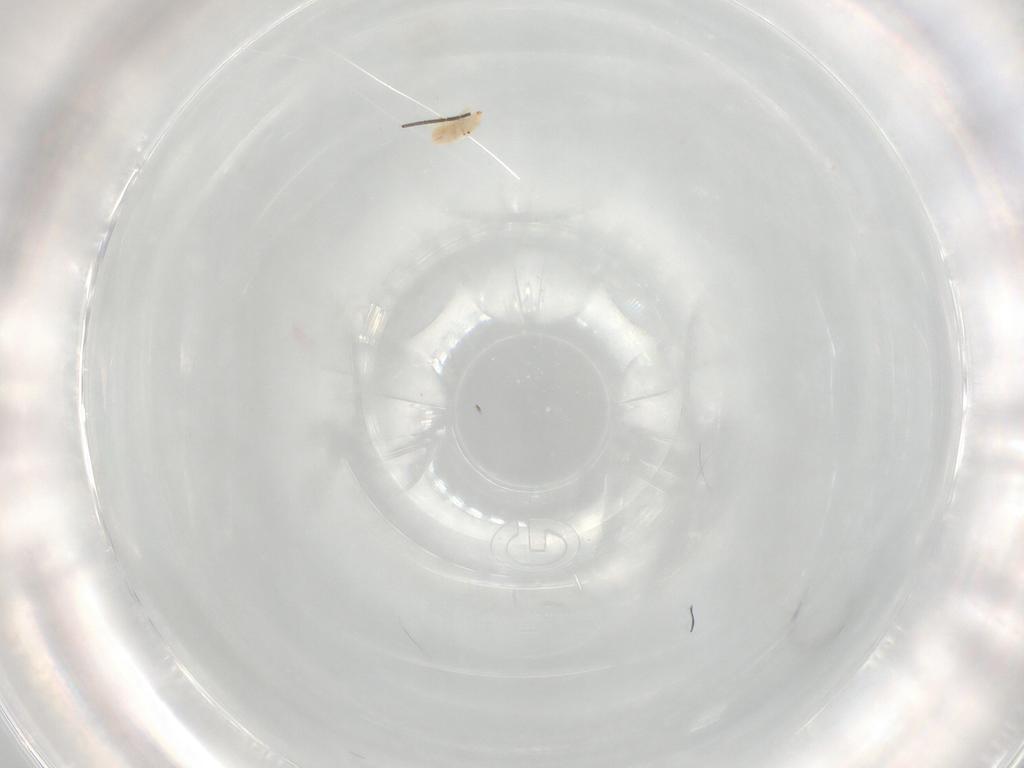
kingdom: Animalia
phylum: Arthropoda
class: Arachnida
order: Trombidiformes
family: Bdellidae
